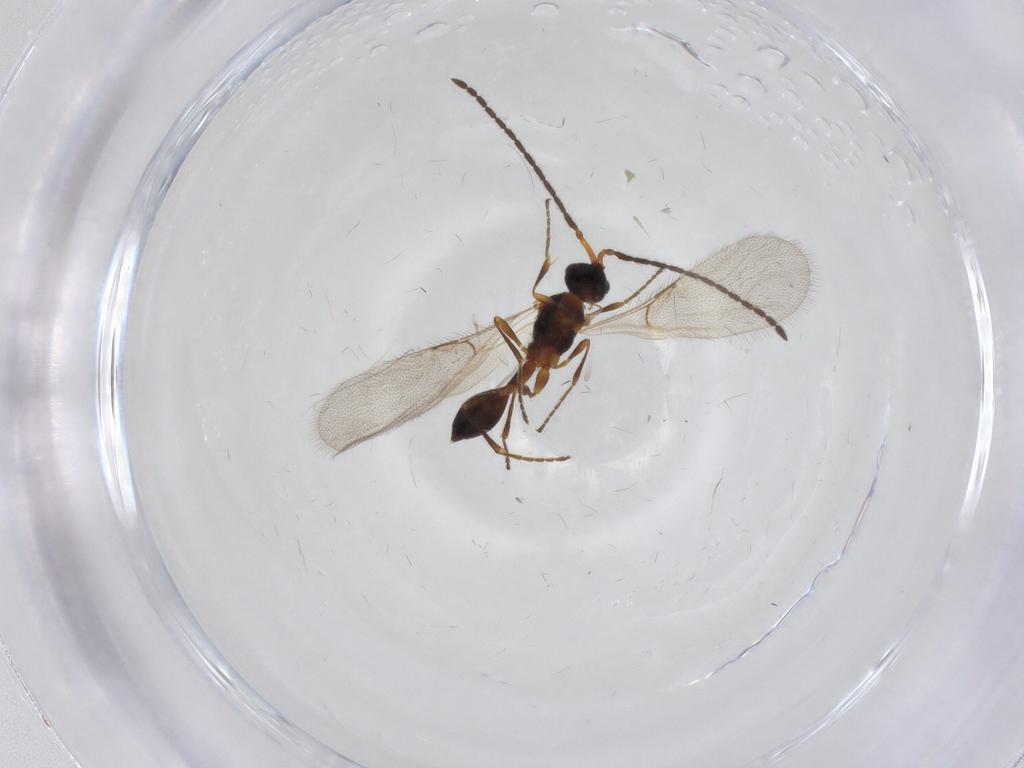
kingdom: Animalia
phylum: Arthropoda
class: Insecta
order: Hymenoptera
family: Diapriidae
